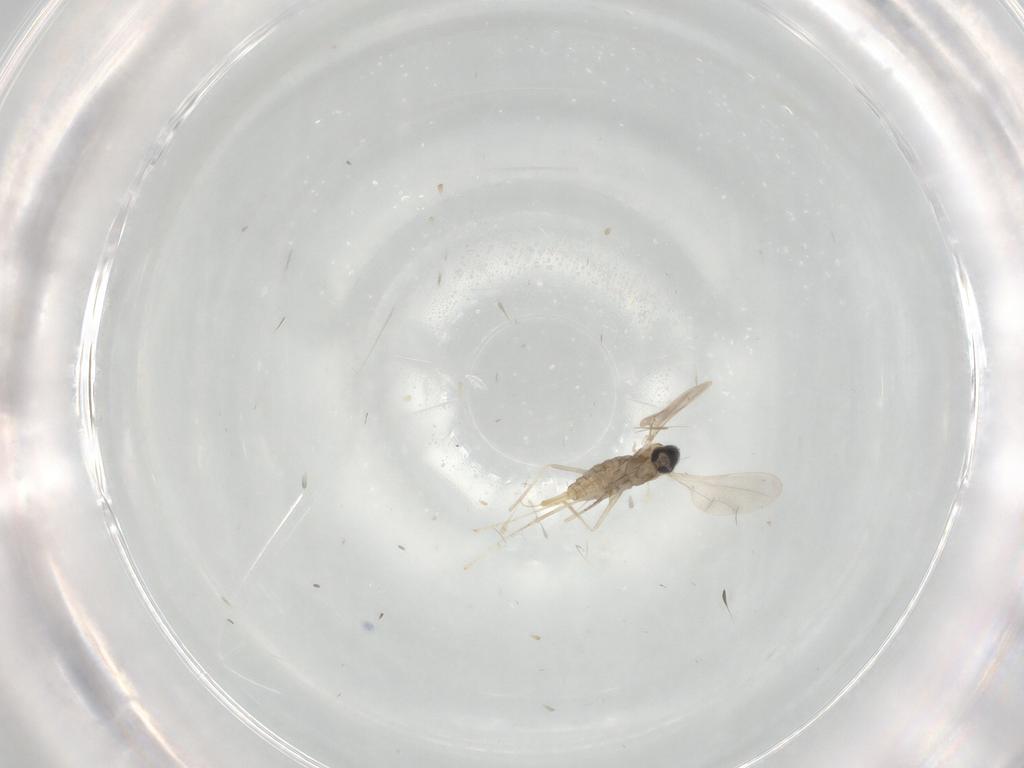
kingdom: Animalia
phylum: Arthropoda
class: Insecta
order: Diptera
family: Cecidomyiidae
